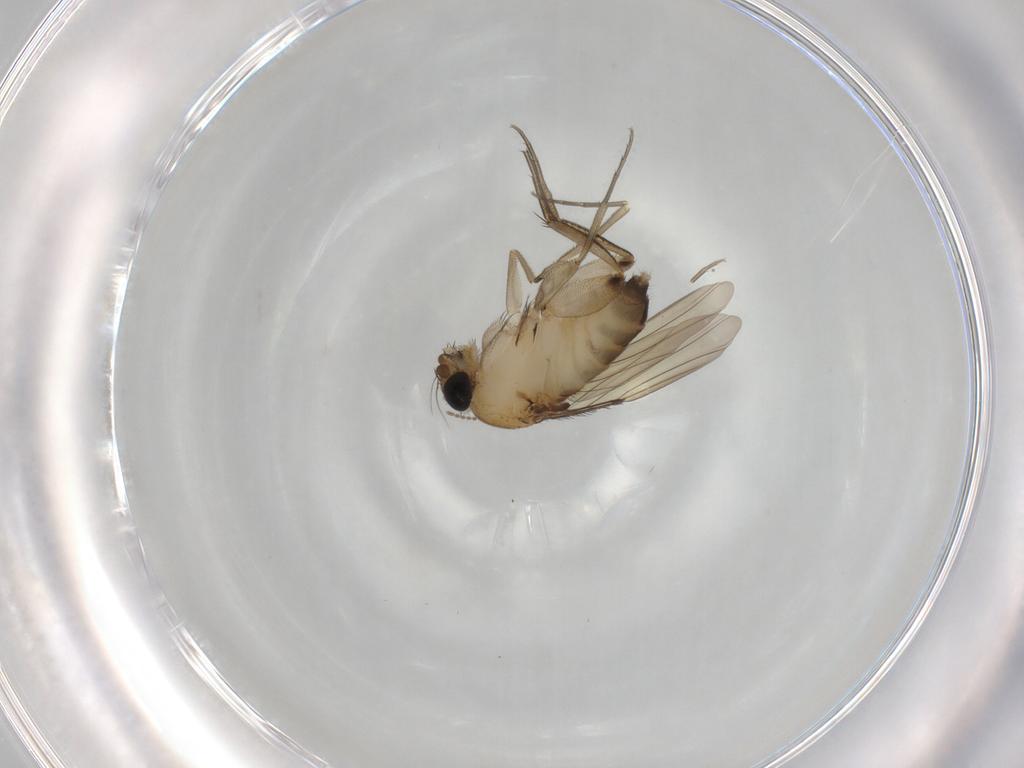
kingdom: Animalia
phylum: Arthropoda
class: Insecta
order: Diptera
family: Phoridae
